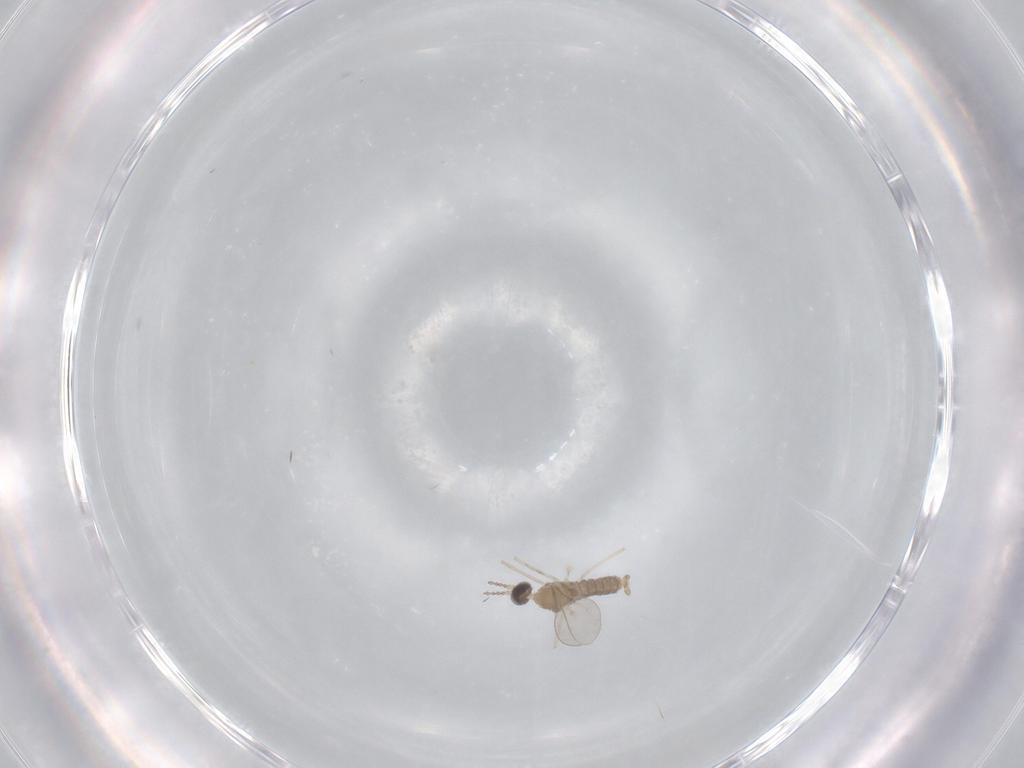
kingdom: Animalia
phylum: Arthropoda
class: Insecta
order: Diptera
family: Cecidomyiidae
